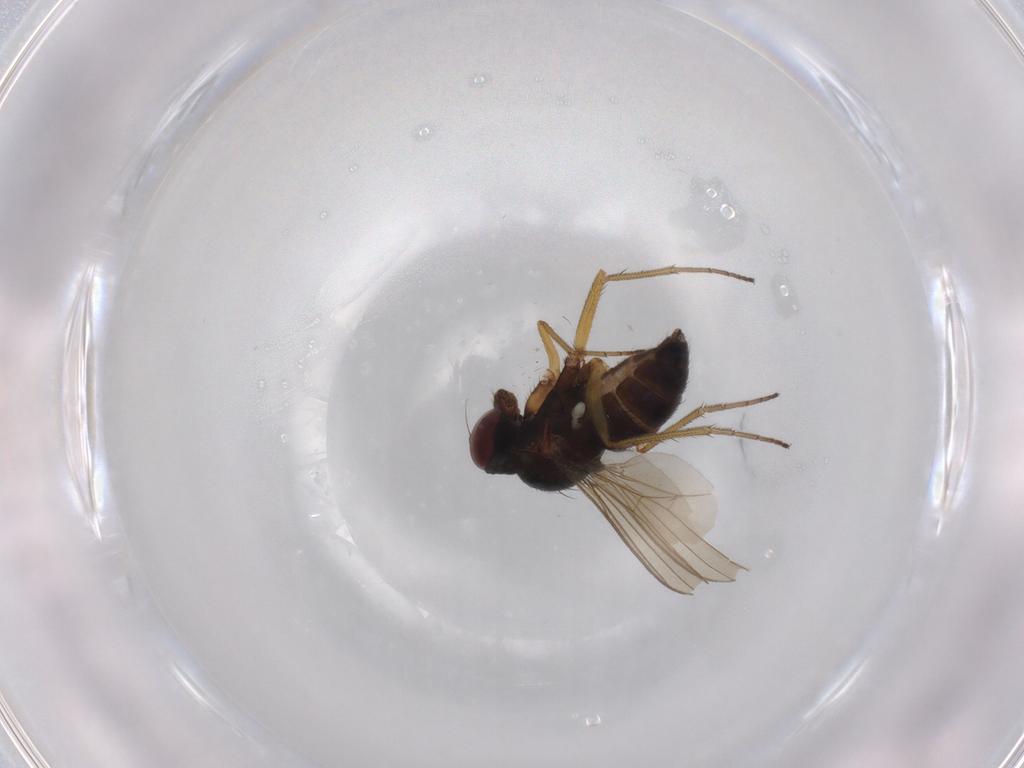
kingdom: Animalia
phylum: Arthropoda
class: Insecta
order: Diptera
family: Dolichopodidae
